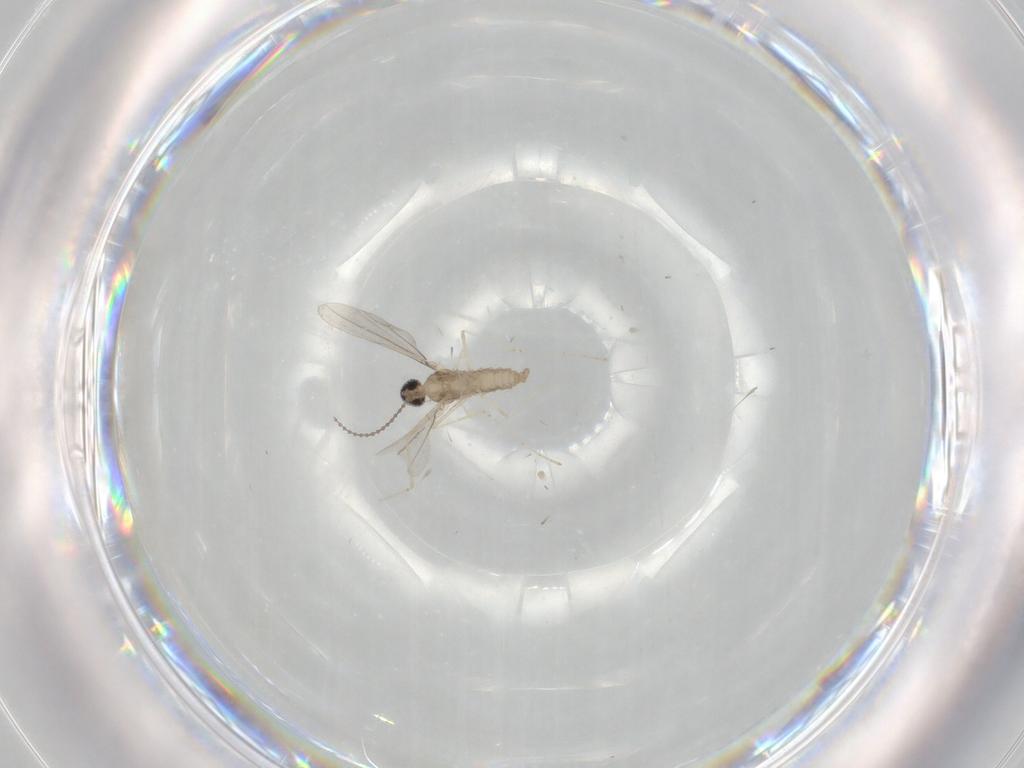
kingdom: Animalia
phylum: Arthropoda
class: Insecta
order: Diptera
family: Cecidomyiidae
